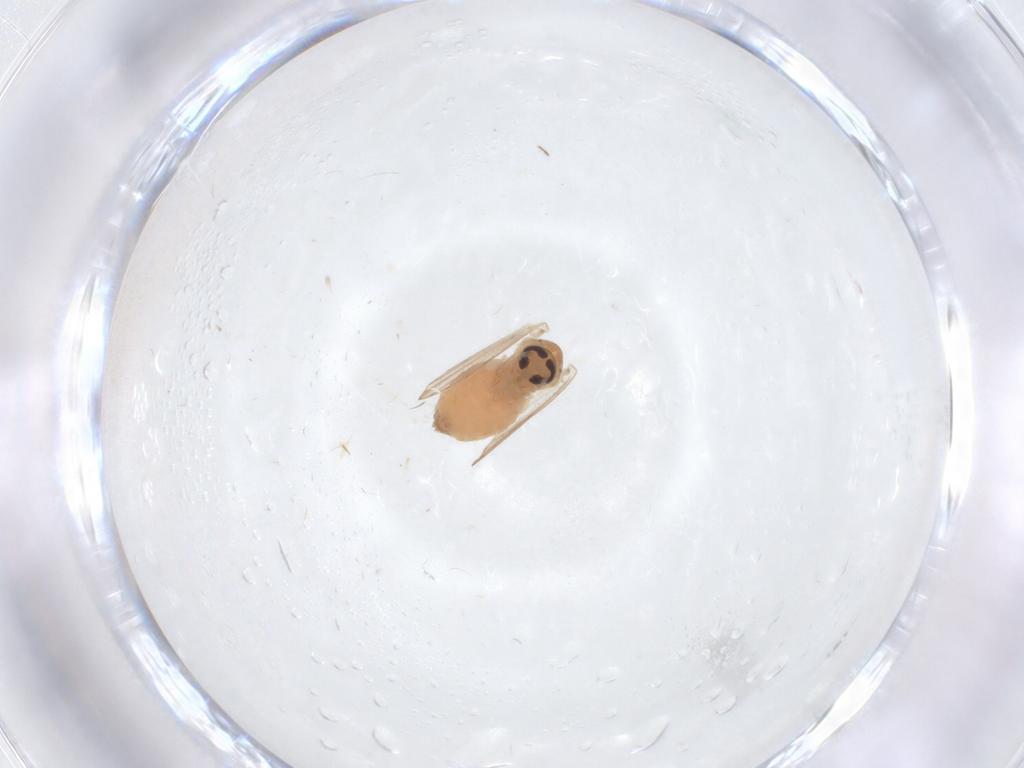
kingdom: Animalia
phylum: Arthropoda
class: Insecta
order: Diptera
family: Psychodidae
